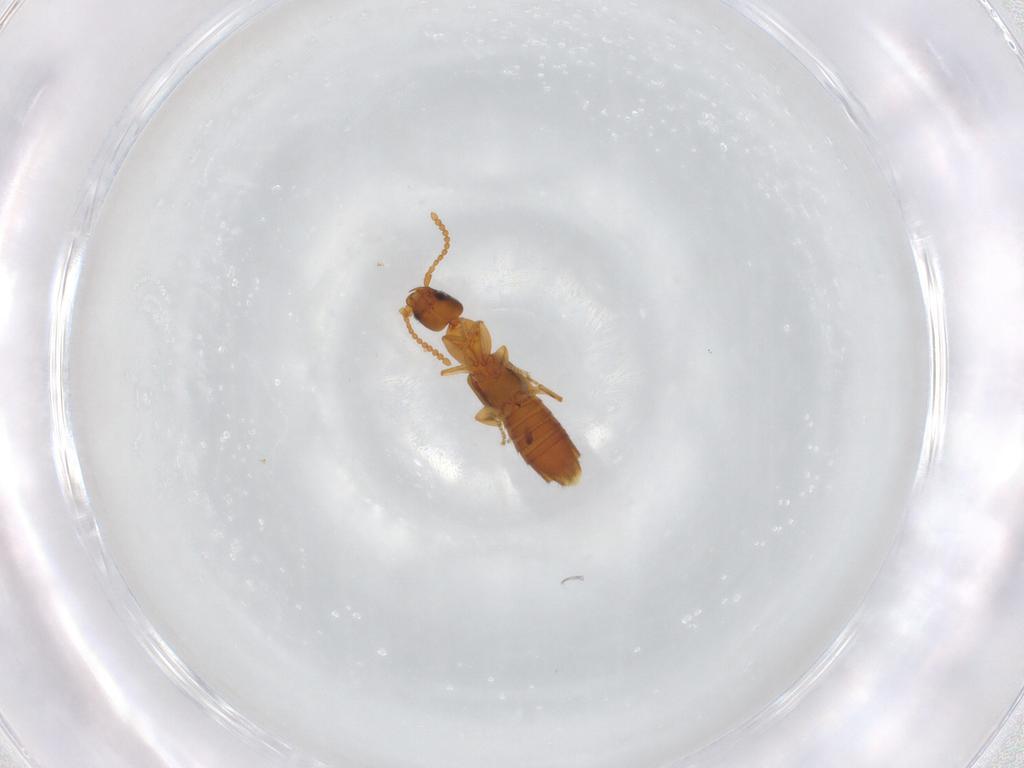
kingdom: Animalia
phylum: Arthropoda
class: Insecta
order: Coleoptera
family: Staphylinidae
